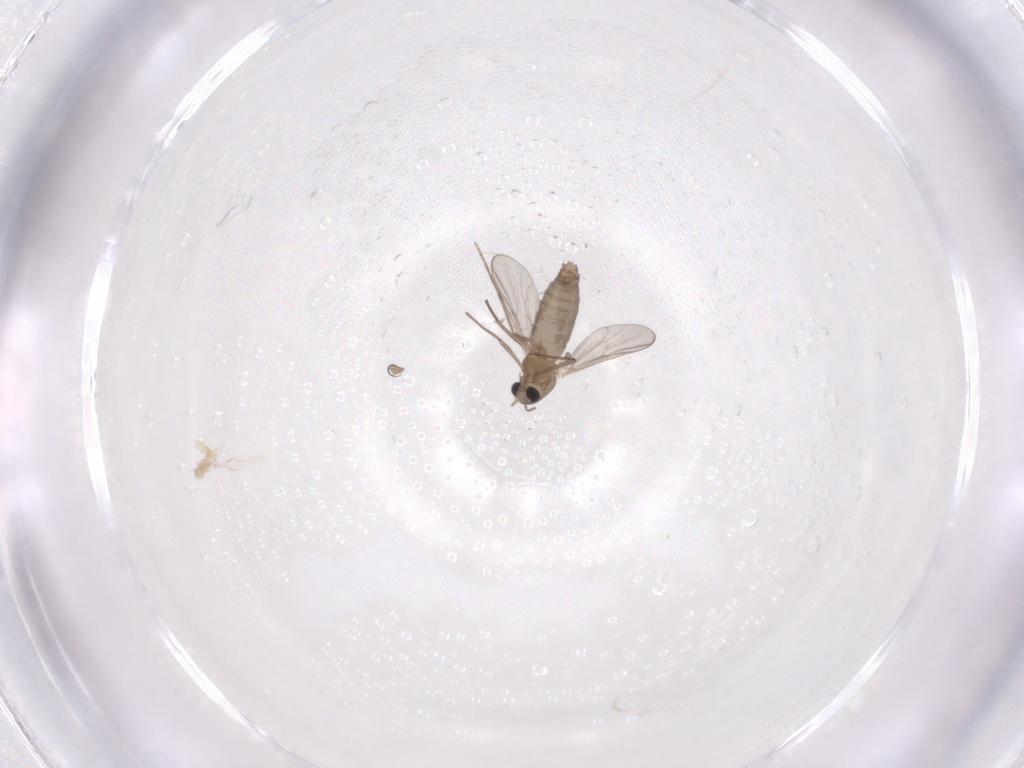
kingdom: Animalia
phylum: Arthropoda
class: Insecta
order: Diptera
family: Chironomidae
